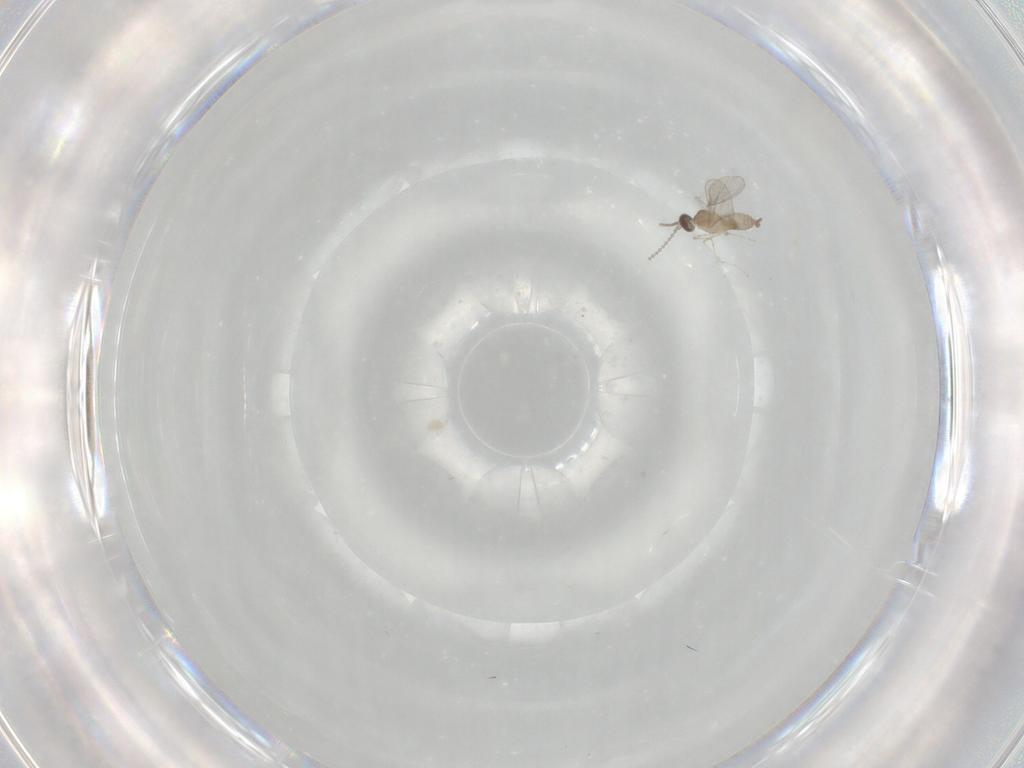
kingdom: Animalia
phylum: Arthropoda
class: Insecta
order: Diptera
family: Cecidomyiidae
